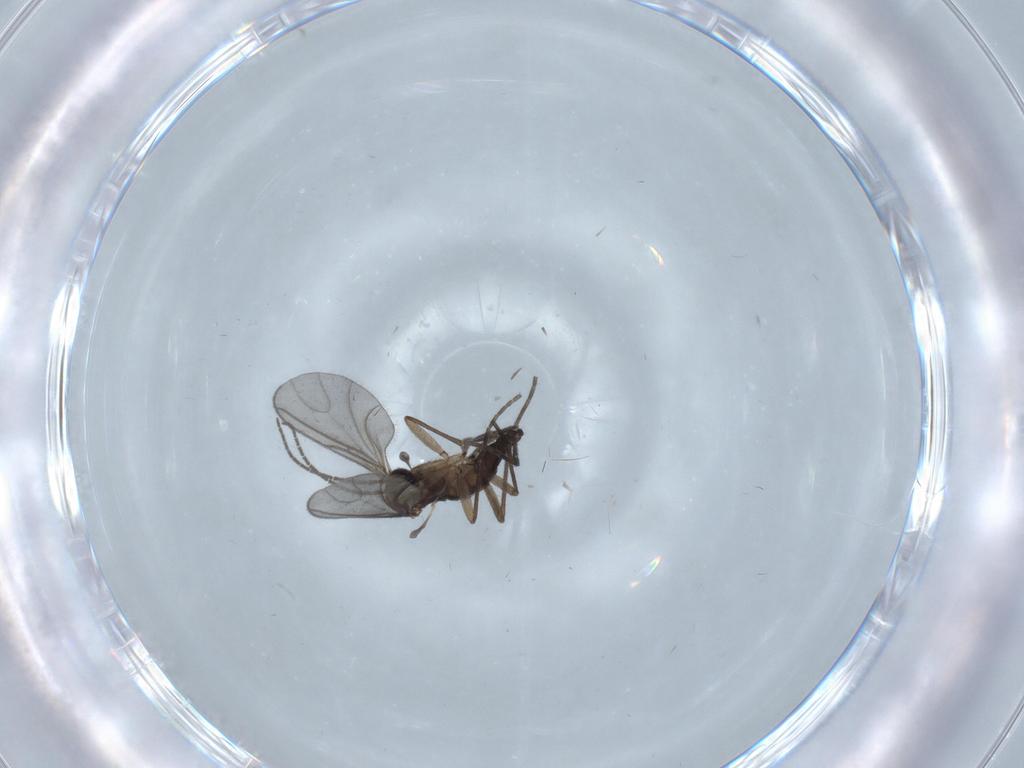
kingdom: Animalia
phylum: Arthropoda
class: Insecta
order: Diptera
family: Sciaridae
